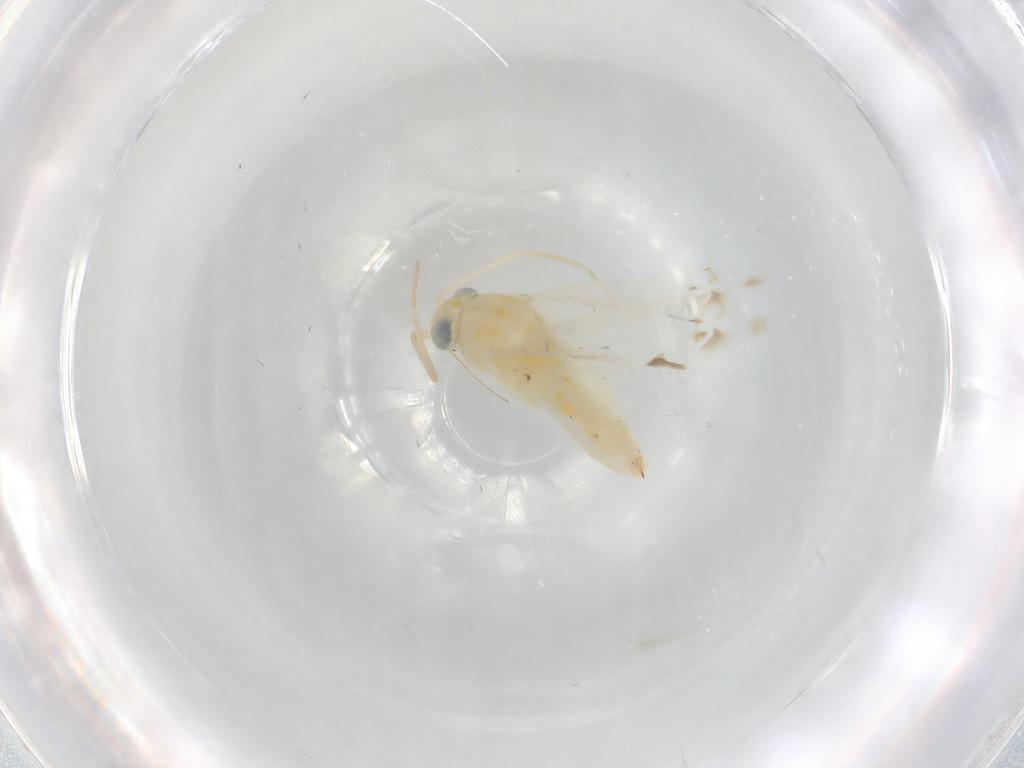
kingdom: Animalia
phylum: Arthropoda
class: Insecta
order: Hemiptera
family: Miridae
